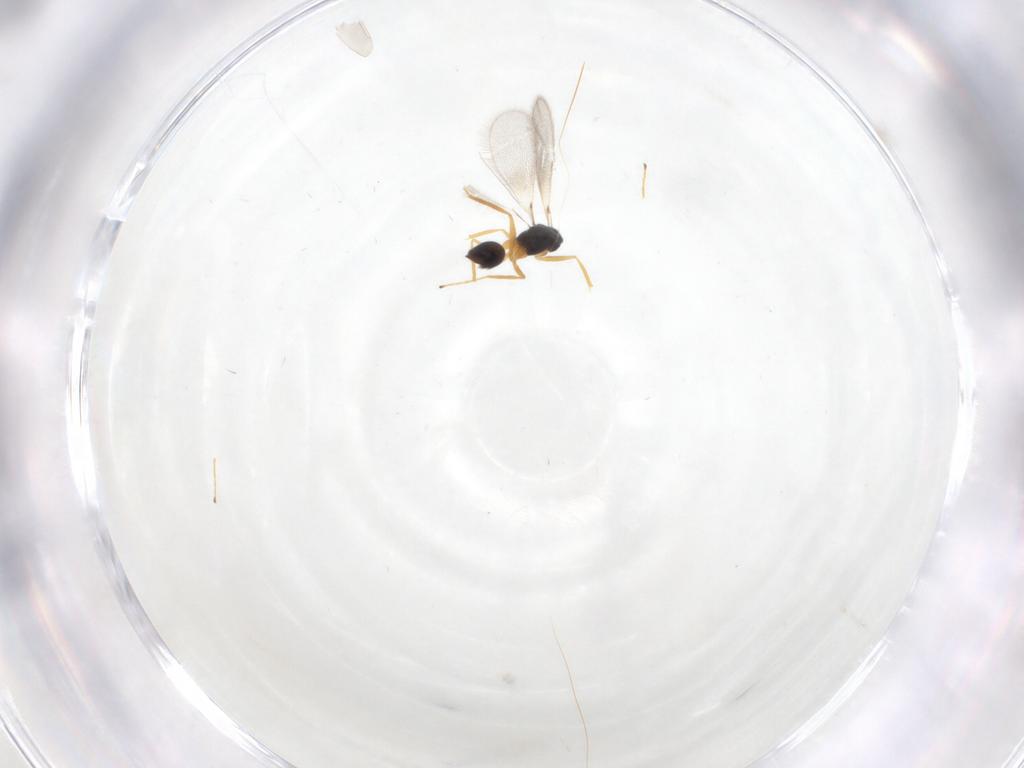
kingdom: Animalia
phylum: Arthropoda
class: Insecta
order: Hymenoptera
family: Mymaridae
